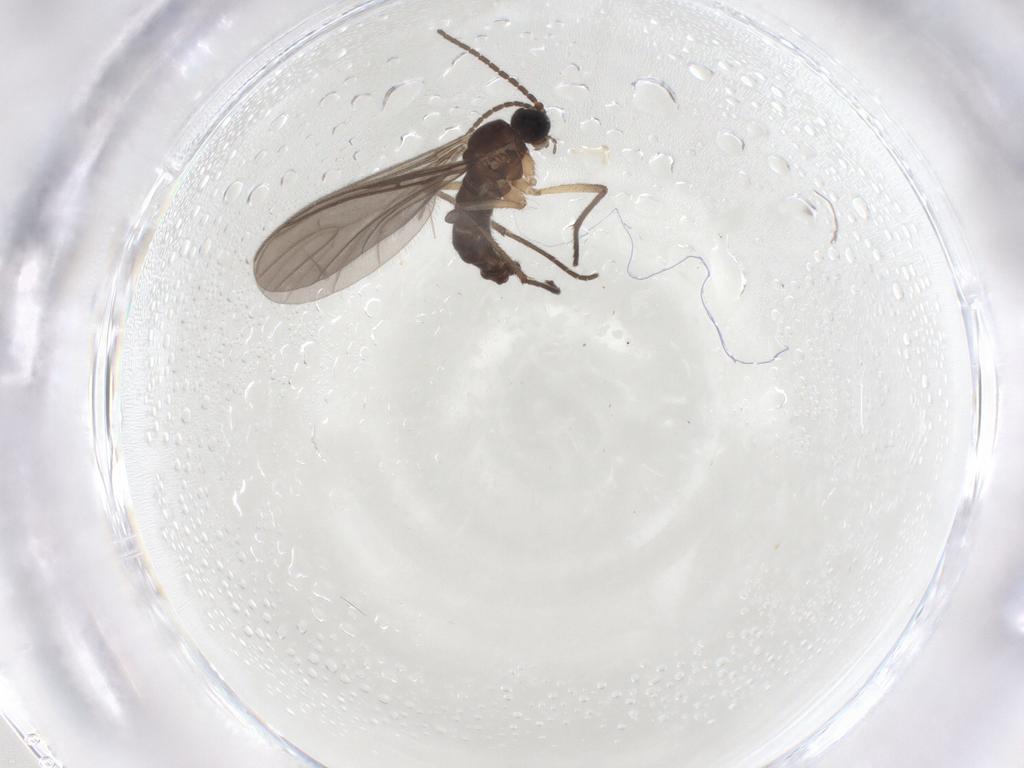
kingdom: Animalia
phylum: Arthropoda
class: Insecta
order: Diptera
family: Sciaridae
